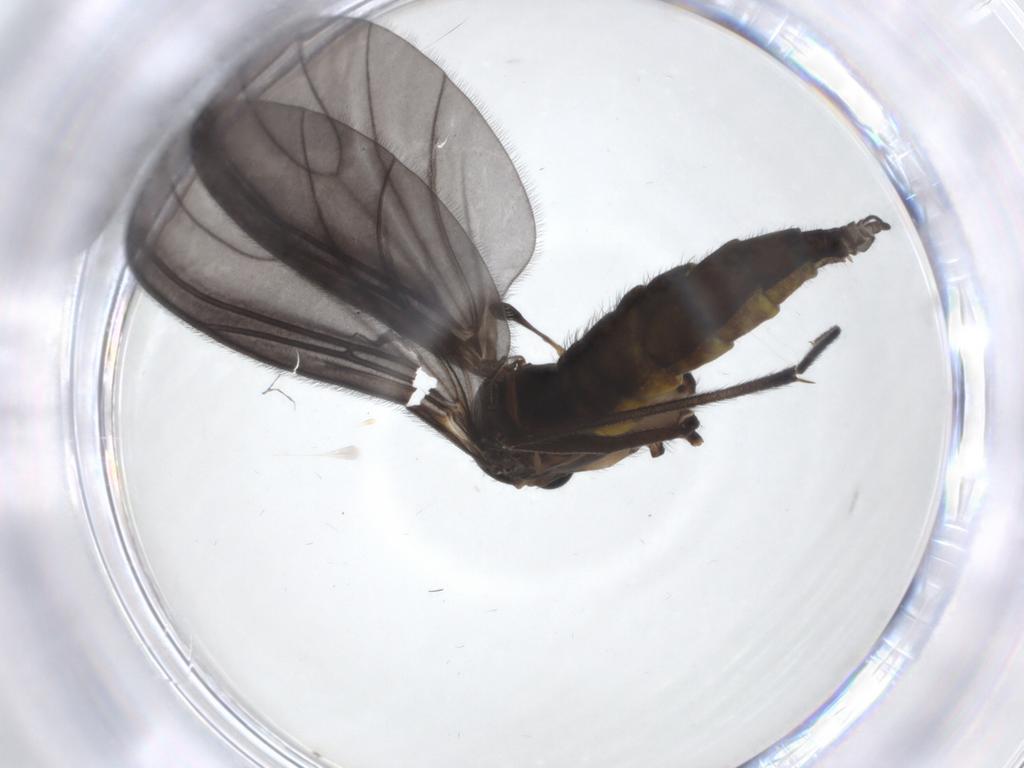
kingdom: Animalia
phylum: Arthropoda
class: Insecta
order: Diptera
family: Sciaridae
